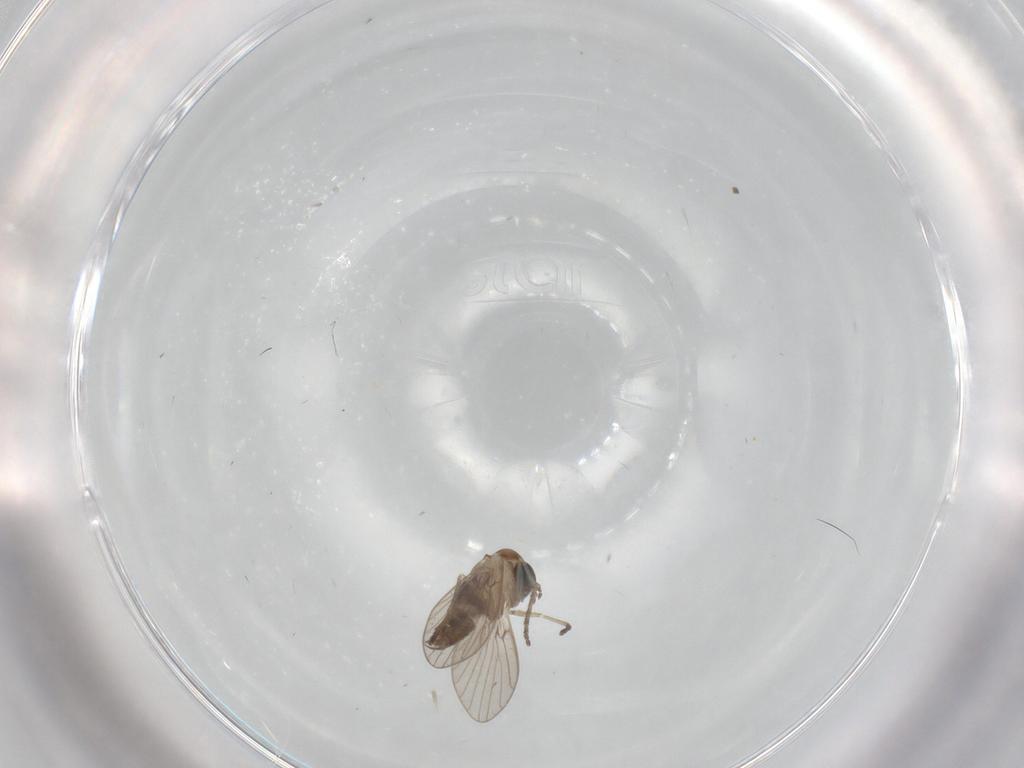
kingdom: Animalia
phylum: Arthropoda
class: Insecta
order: Diptera
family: Psychodidae
